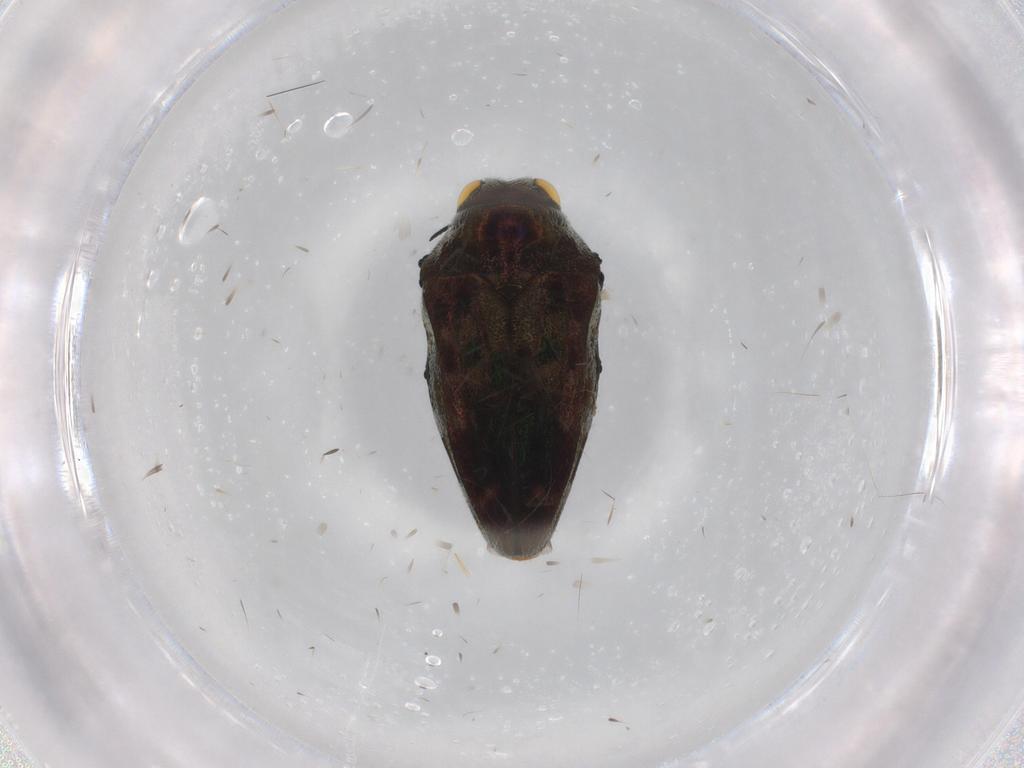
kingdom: Animalia
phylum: Arthropoda
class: Insecta
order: Coleoptera
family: Buprestidae
